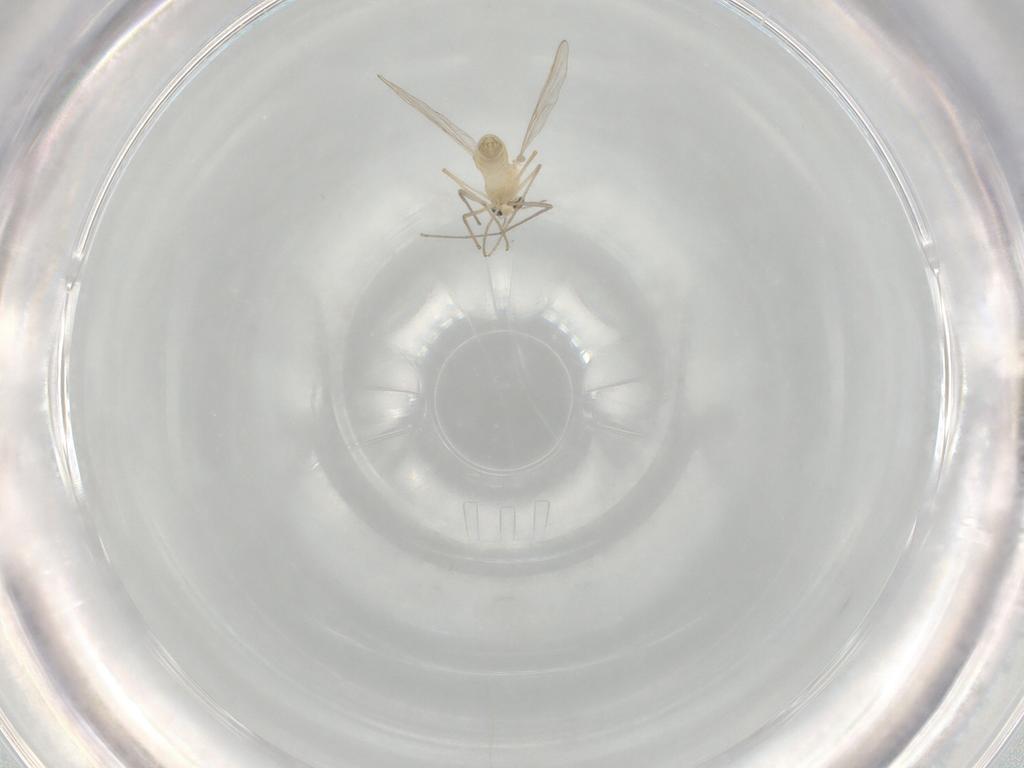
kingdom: Animalia
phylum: Arthropoda
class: Insecta
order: Diptera
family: Chironomidae
